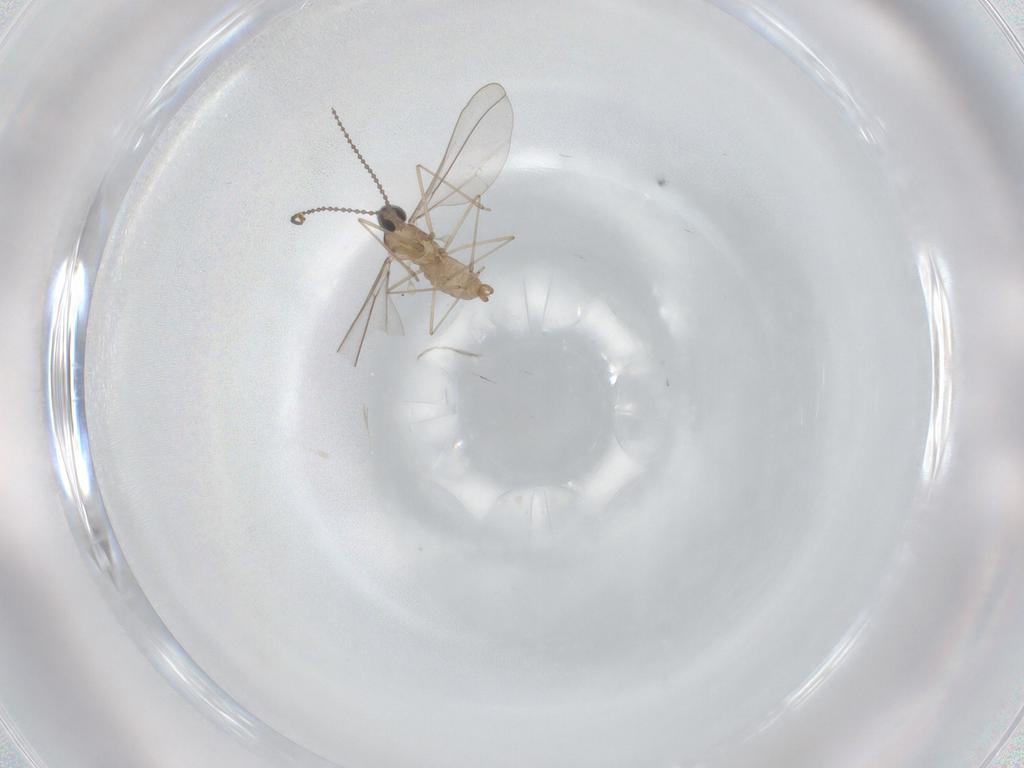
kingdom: Animalia
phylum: Arthropoda
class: Insecta
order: Diptera
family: Cecidomyiidae
